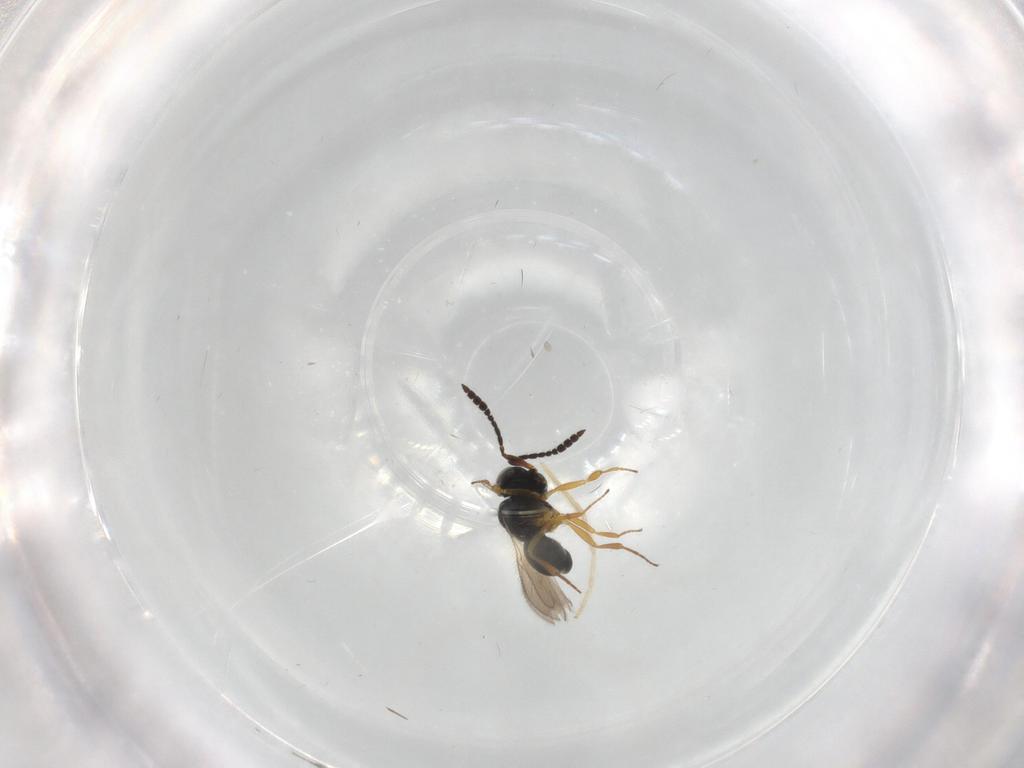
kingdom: Animalia
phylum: Arthropoda
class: Insecta
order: Hymenoptera
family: Scelionidae
